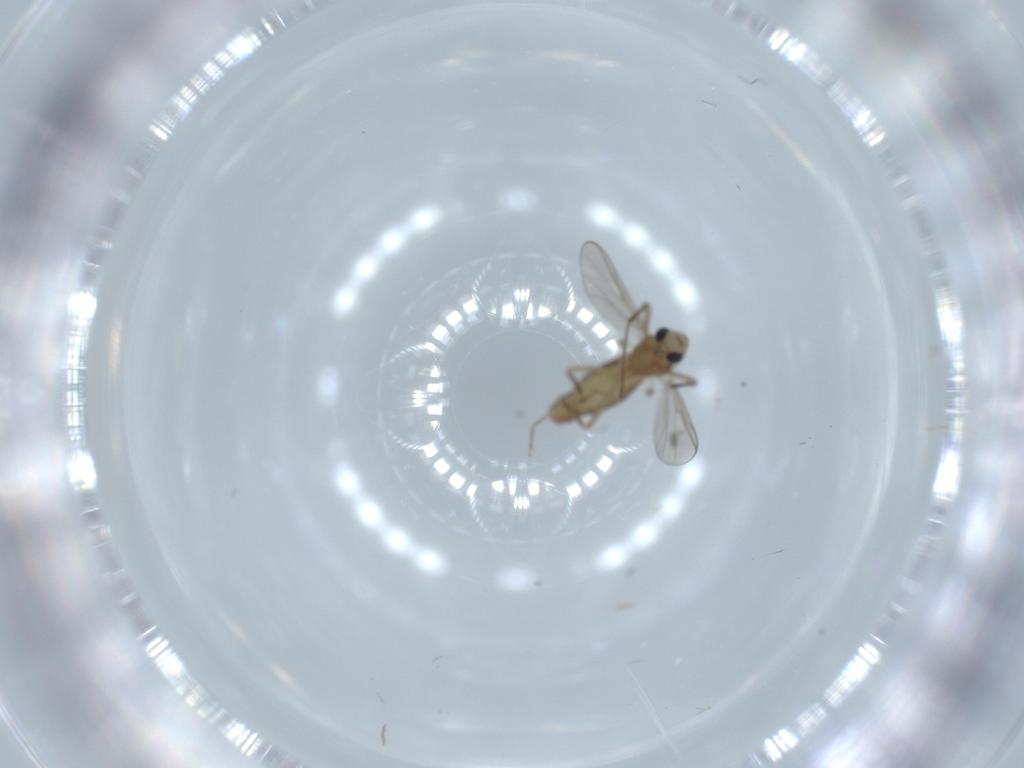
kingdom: Animalia
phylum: Arthropoda
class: Insecta
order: Diptera
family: Chironomidae
